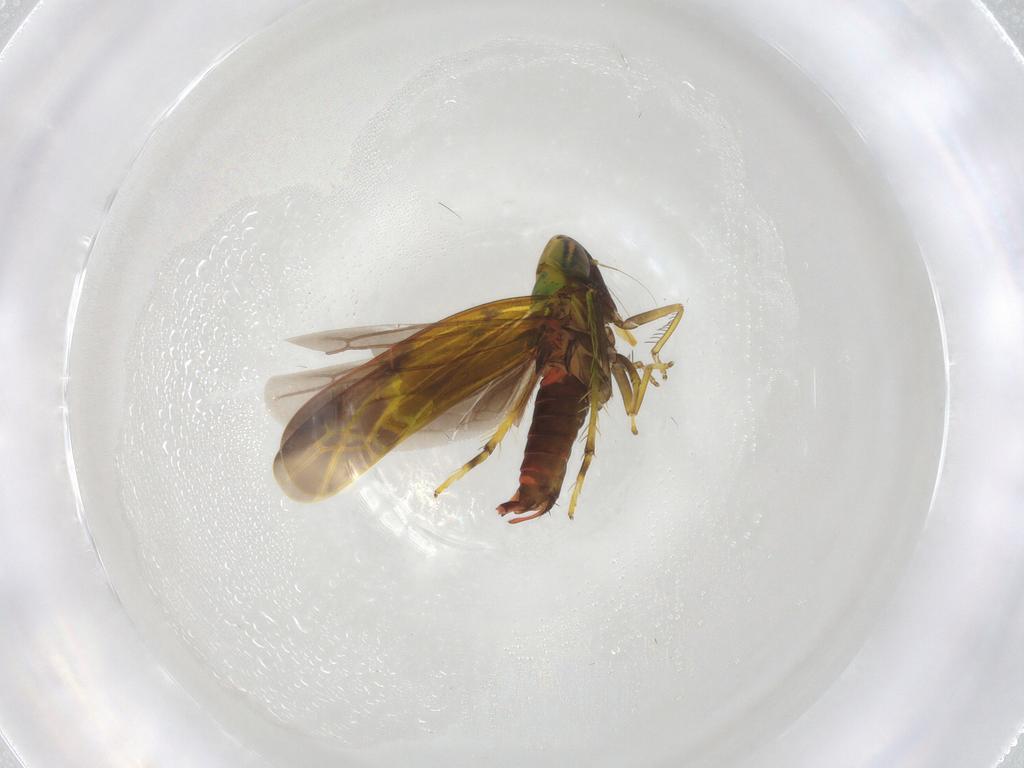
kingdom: Animalia
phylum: Arthropoda
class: Insecta
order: Hemiptera
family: Cicadellidae
